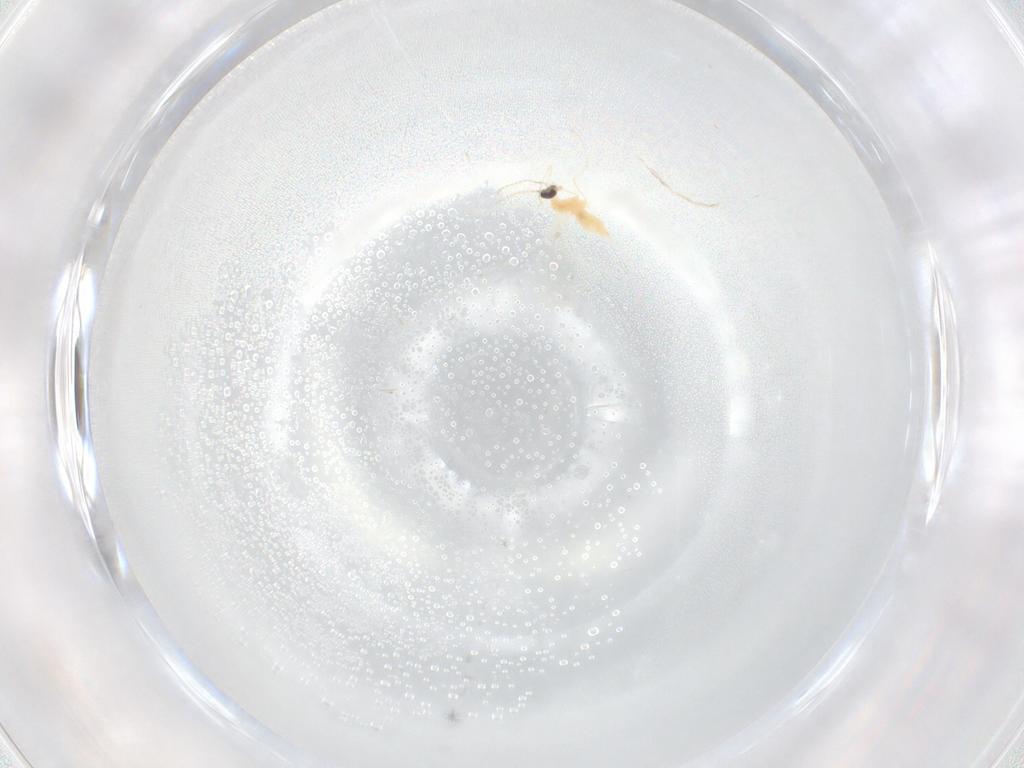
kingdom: Animalia
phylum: Arthropoda
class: Insecta
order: Diptera
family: Cecidomyiidae
